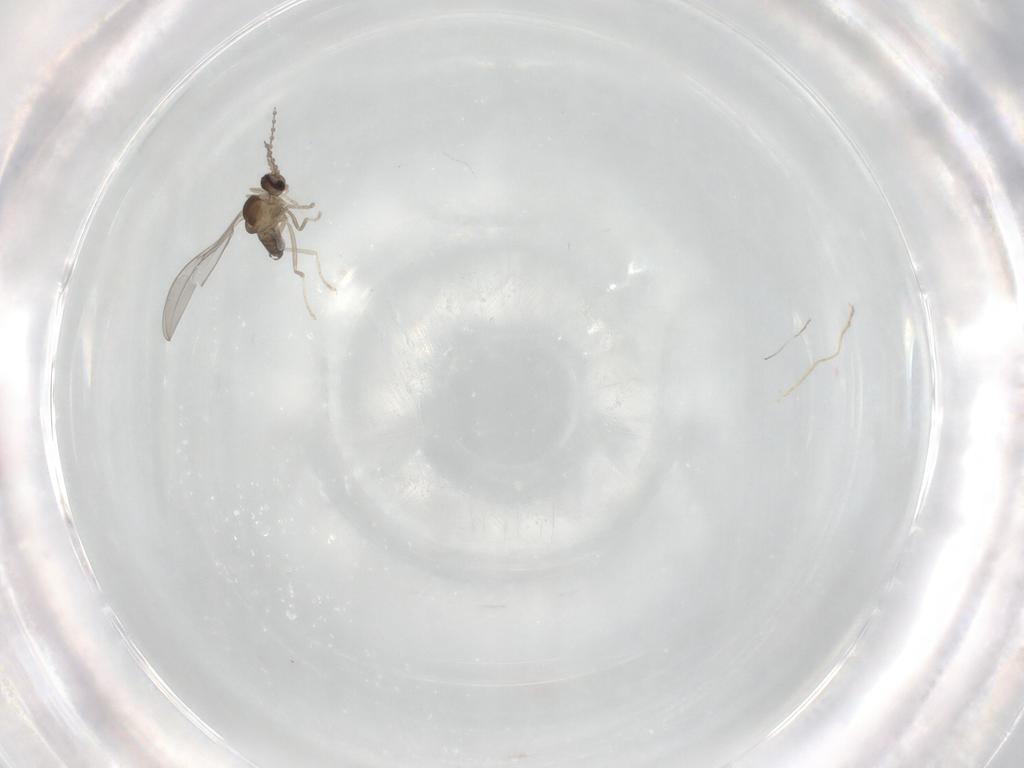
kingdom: Animalia
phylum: Arthropoda
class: Insecta
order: Diptera
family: Cecidomyiidae
